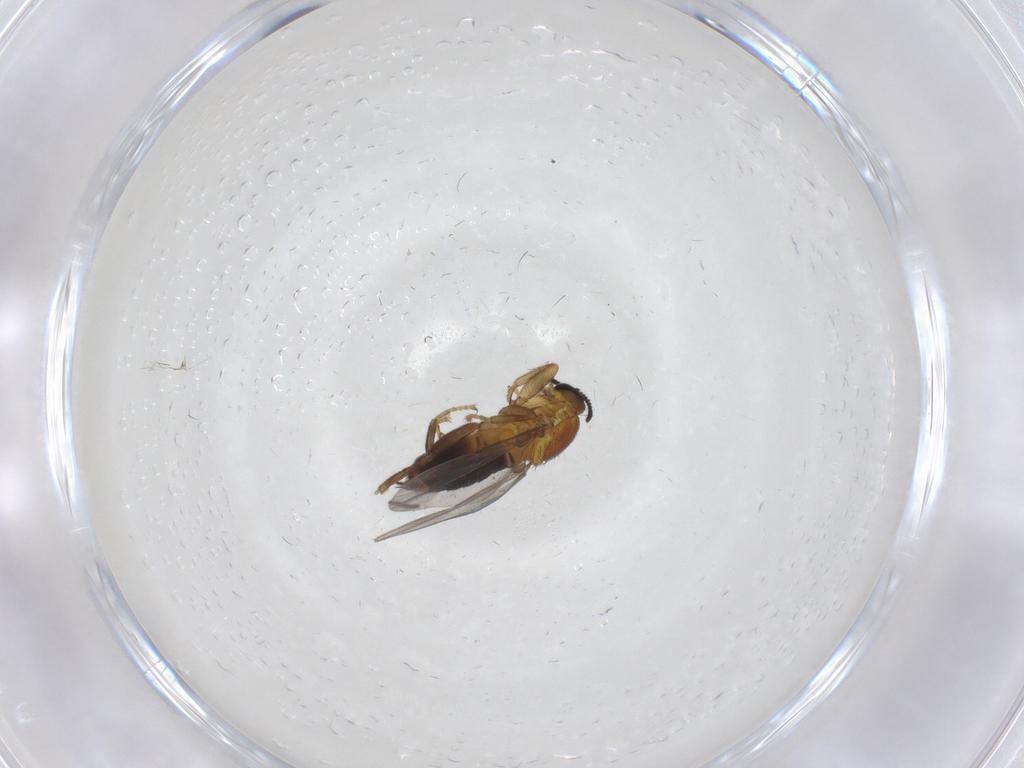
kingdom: Animalia
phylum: Arthropoda
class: Insecta
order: Diptera
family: Scatopsidae
